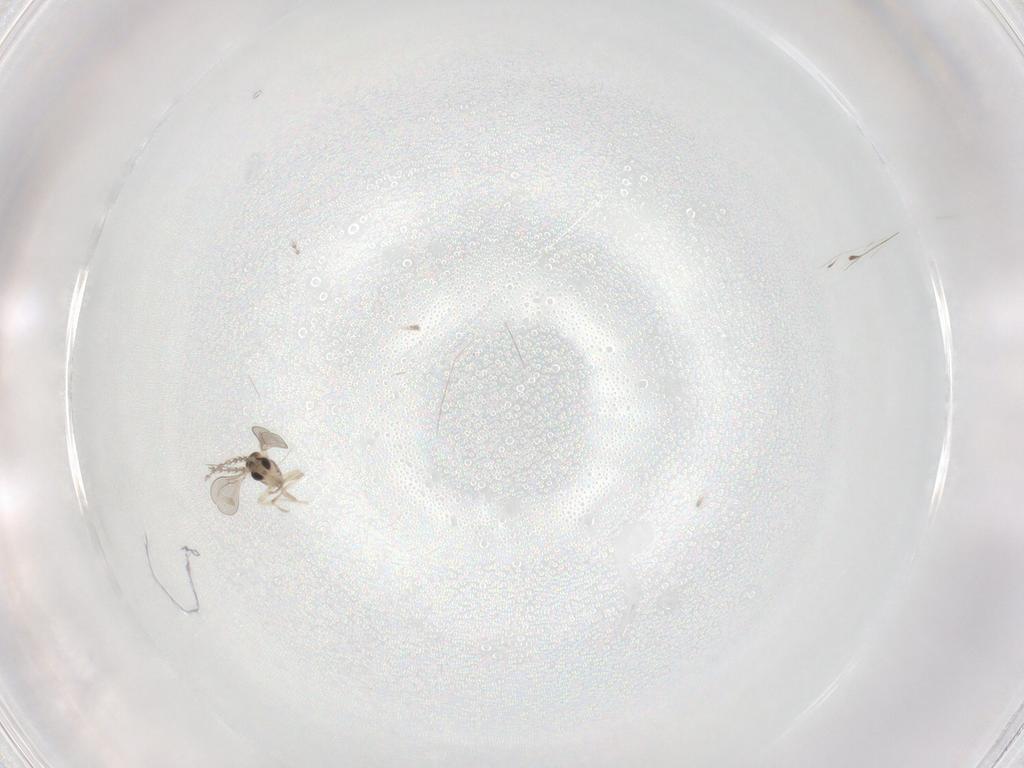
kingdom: Animalia
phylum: Arthropoda
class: Insecta
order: Diptera
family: Cecidomyiidae
